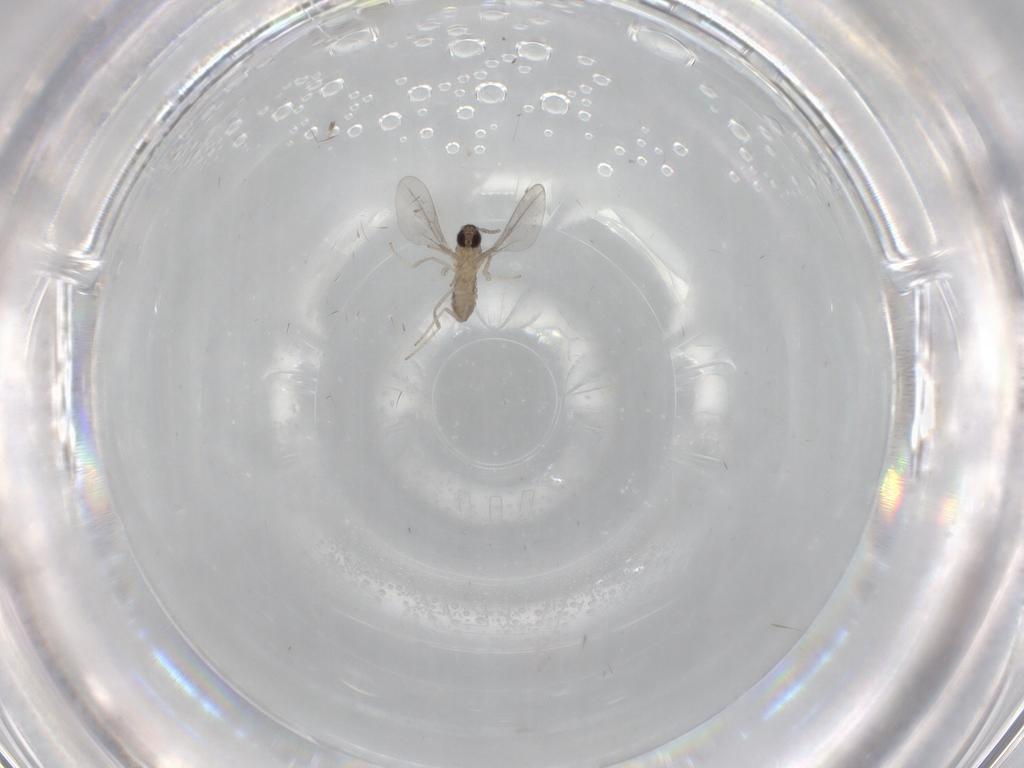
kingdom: Animalia
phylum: Arthropoda
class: Insecta
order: Diptera
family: Cecidomyiidae
